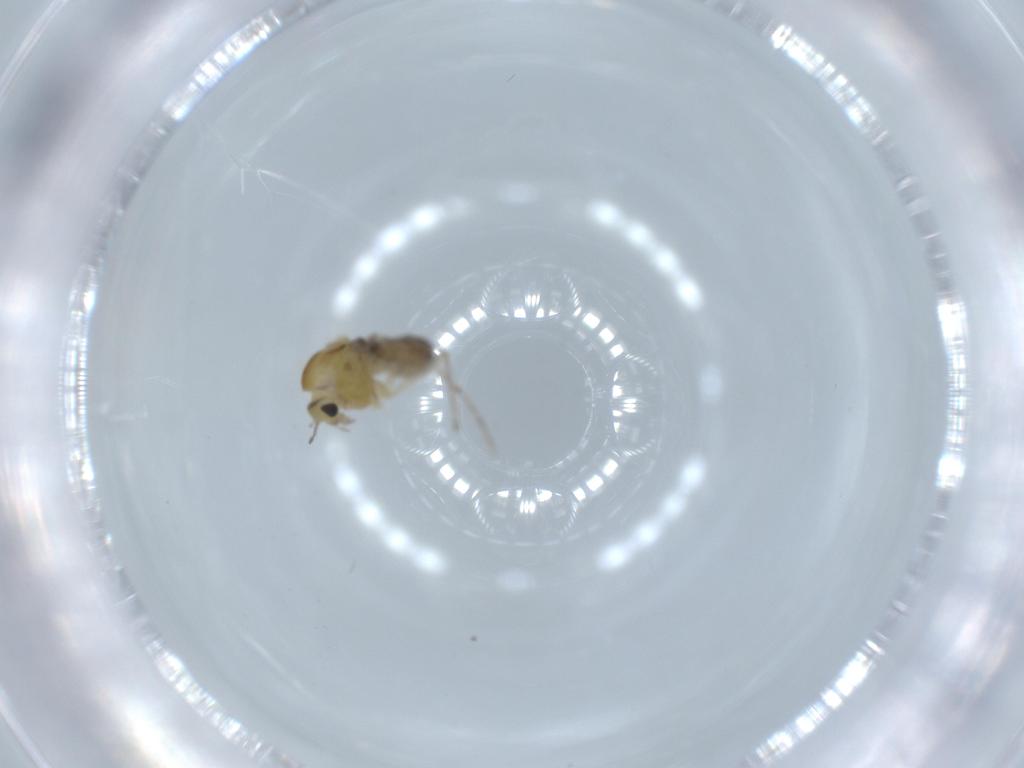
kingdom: Animalia
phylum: Arthropoda
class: Insecta
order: Diptera
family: Chironomidae
